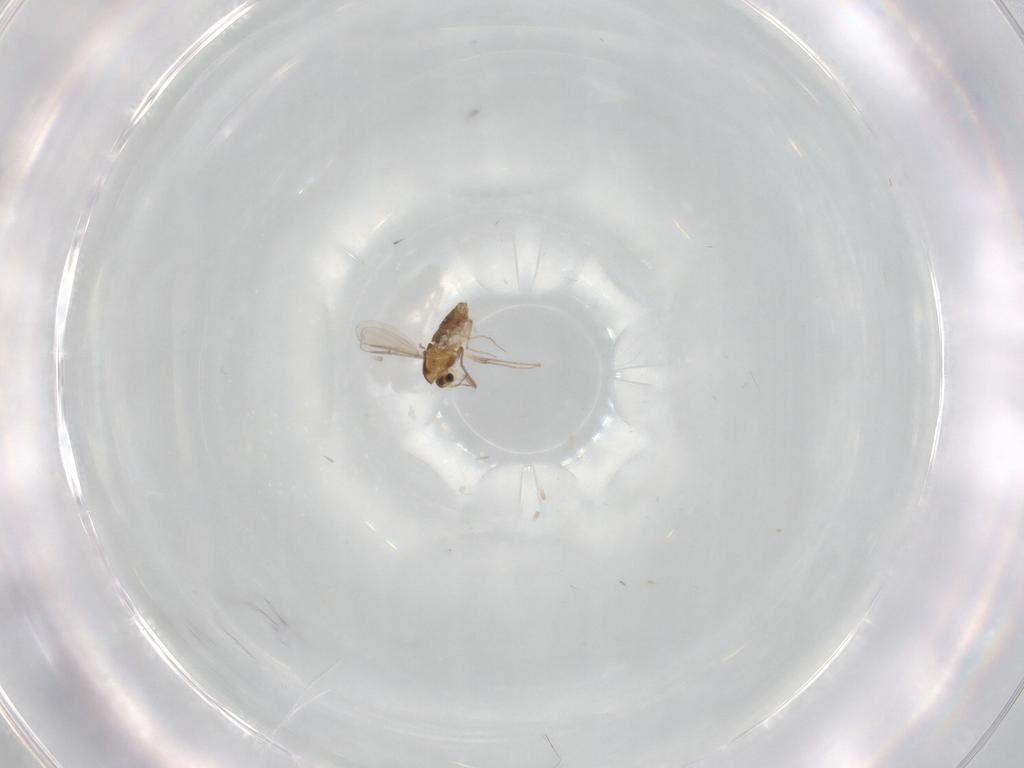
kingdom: Animalia
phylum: Arthropoda
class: Insecta
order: Diptera
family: Chironomidae
